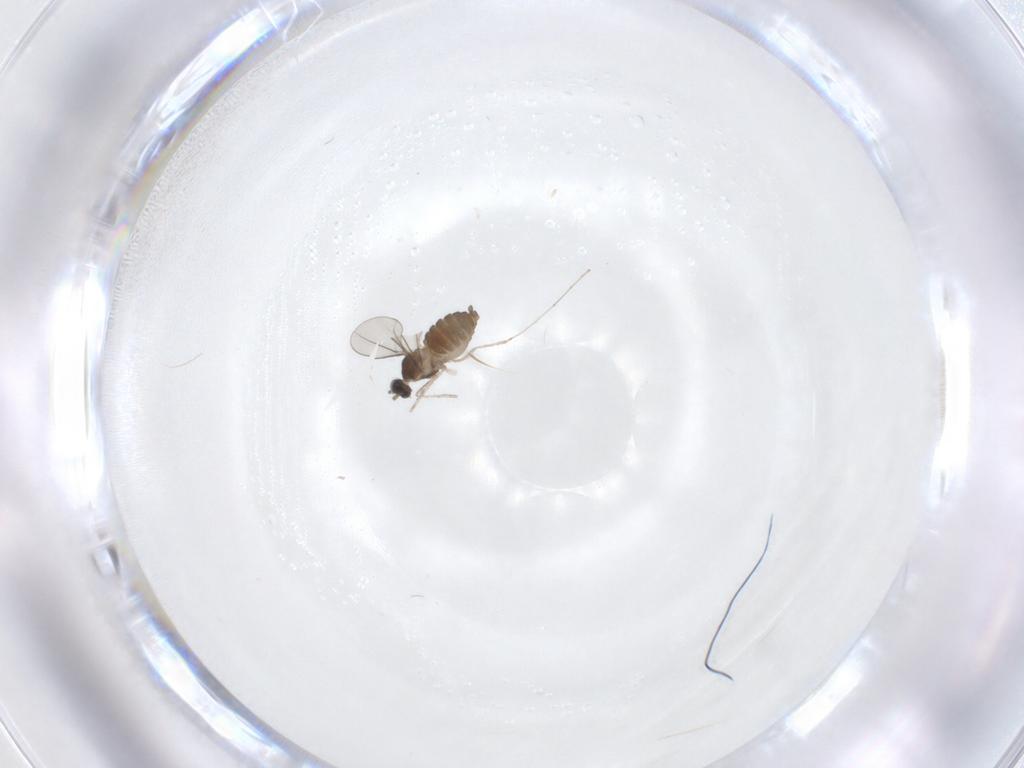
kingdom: Animalia
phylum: Arthropoda
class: Insecta
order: Diptera
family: Cecidomyiidae
